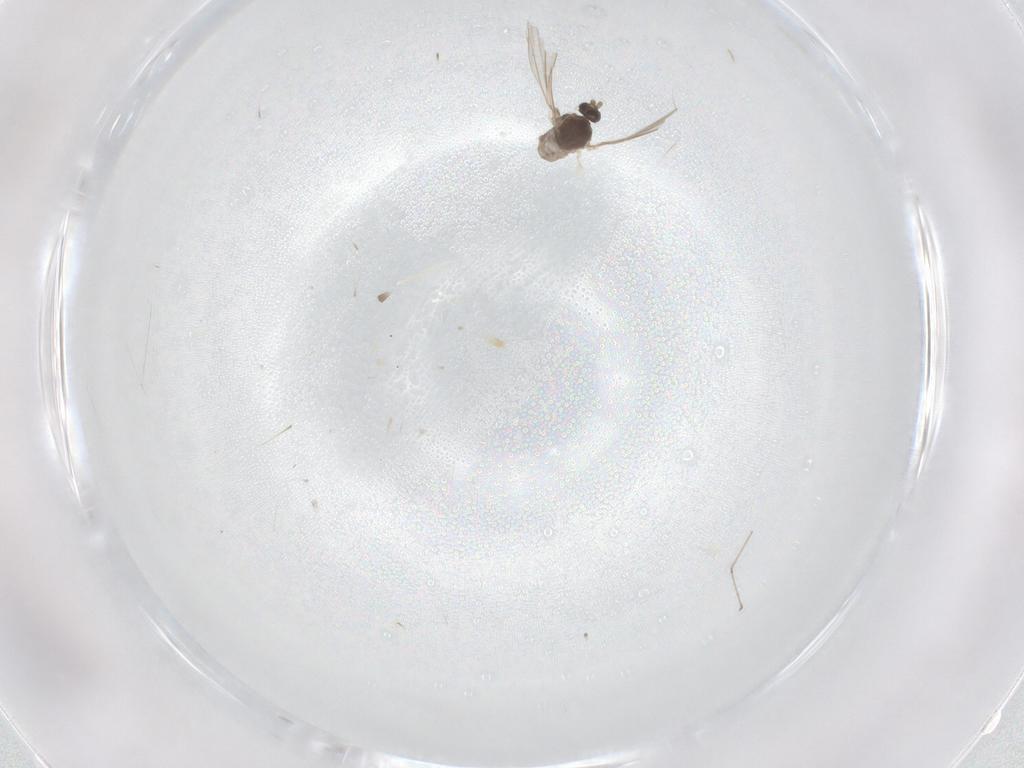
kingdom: Animalia
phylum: Arthropoda
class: Insecta
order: Diptera
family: Cecidomyiidae
